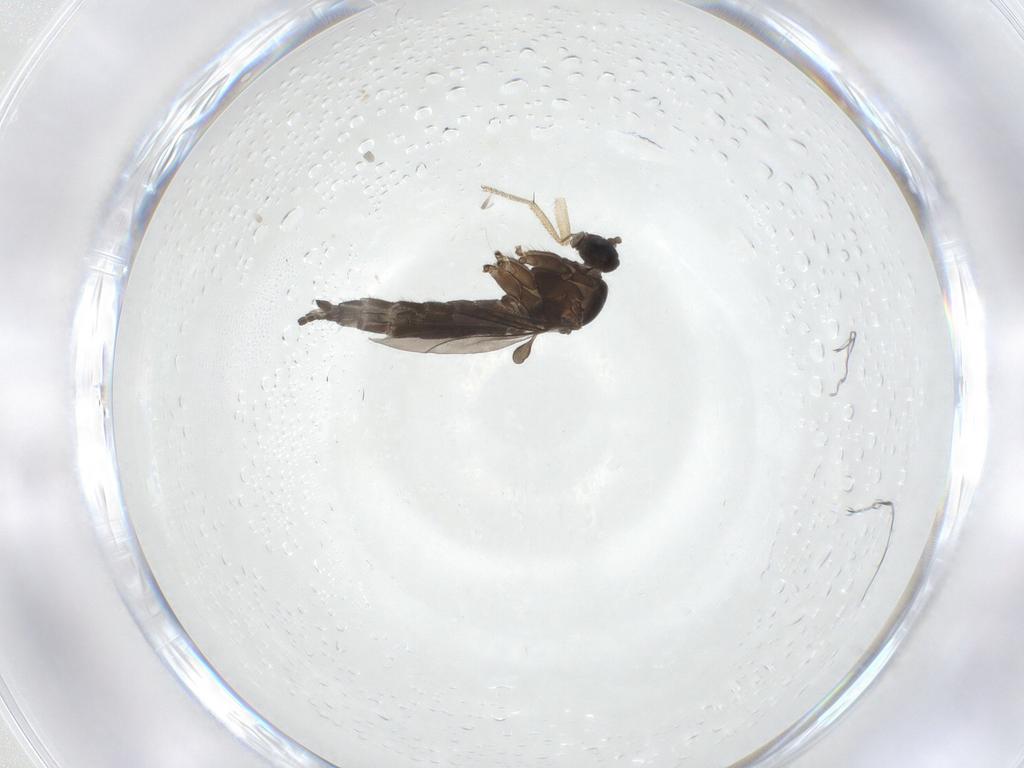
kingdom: Animalia
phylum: Arthropoda
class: Insecta
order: Diptera
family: Sciaridae
